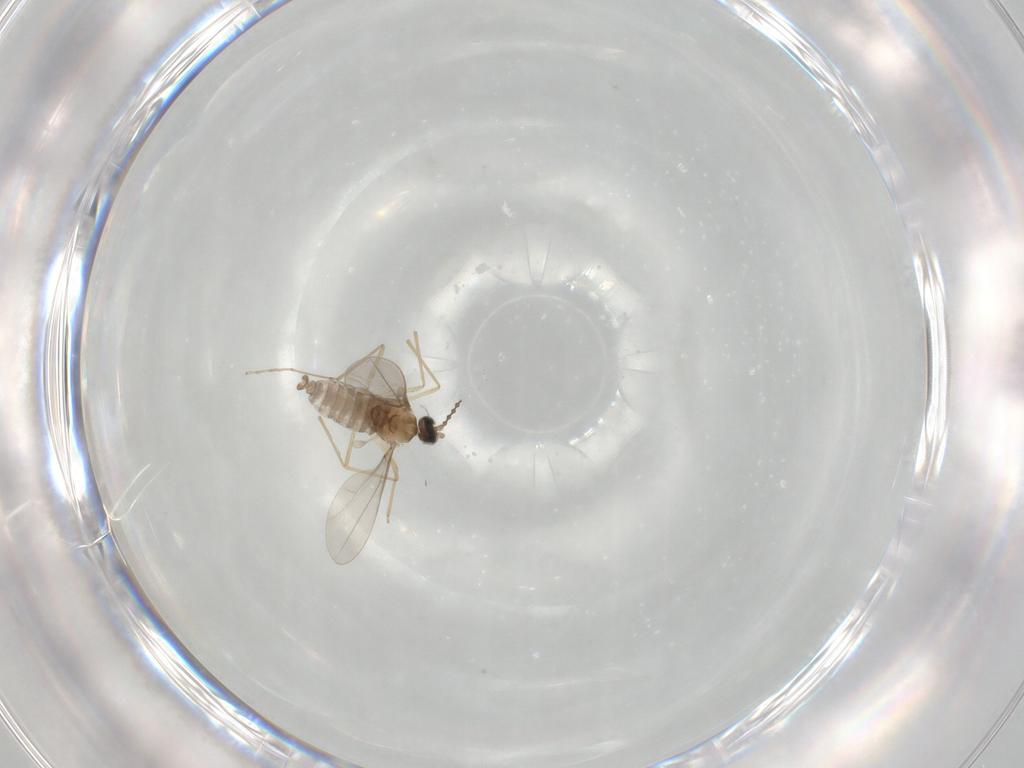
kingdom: Animalia
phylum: Arthropoda
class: Insecta
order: Diptera
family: Cecidomyiidae
